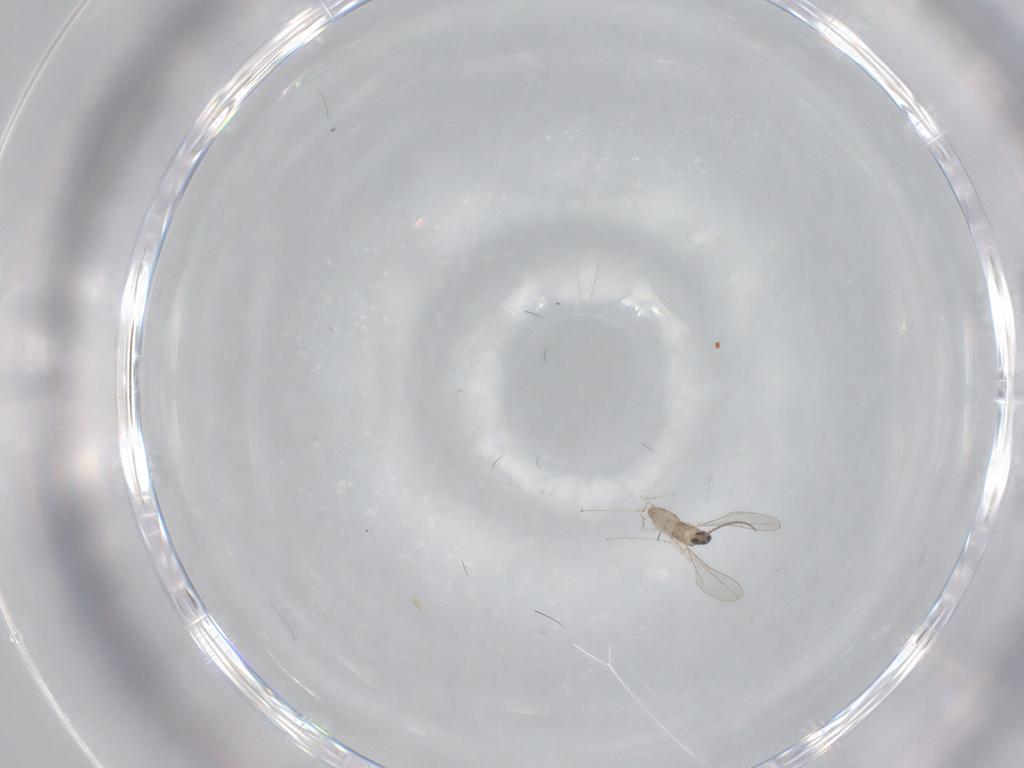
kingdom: Animalia
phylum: Arthropoda
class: Insecta
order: Diptera
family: Cecidomyiidae
